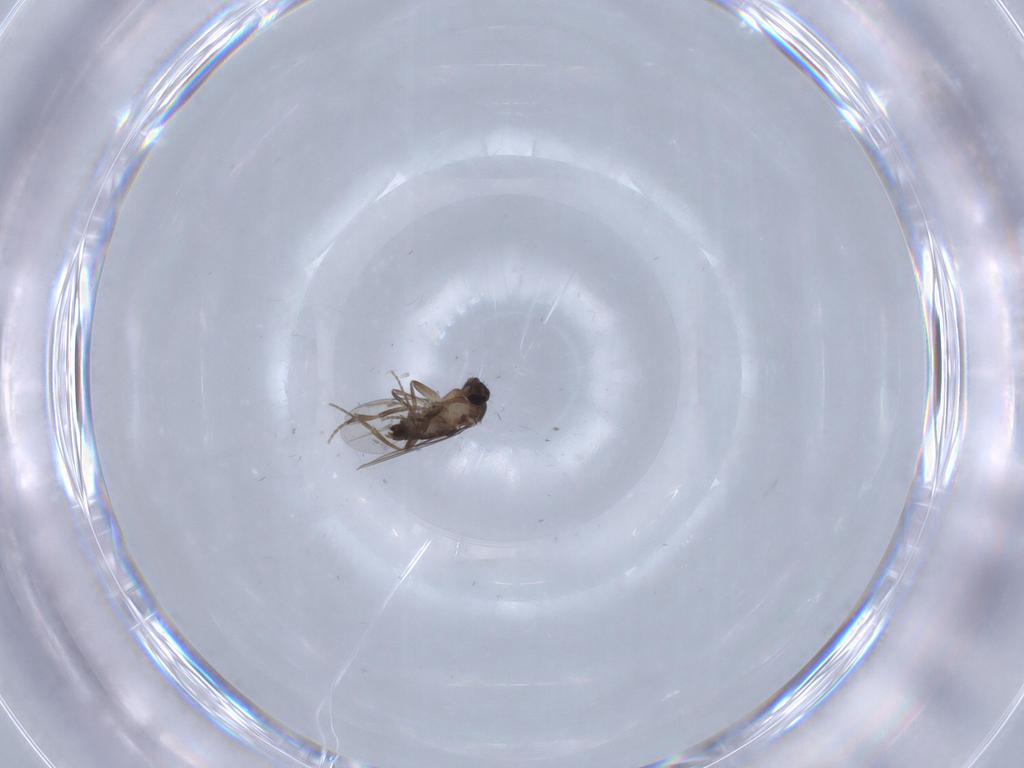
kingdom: Animalia
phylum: Arthropoda
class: Insecta
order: Diptera
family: Phoridae
